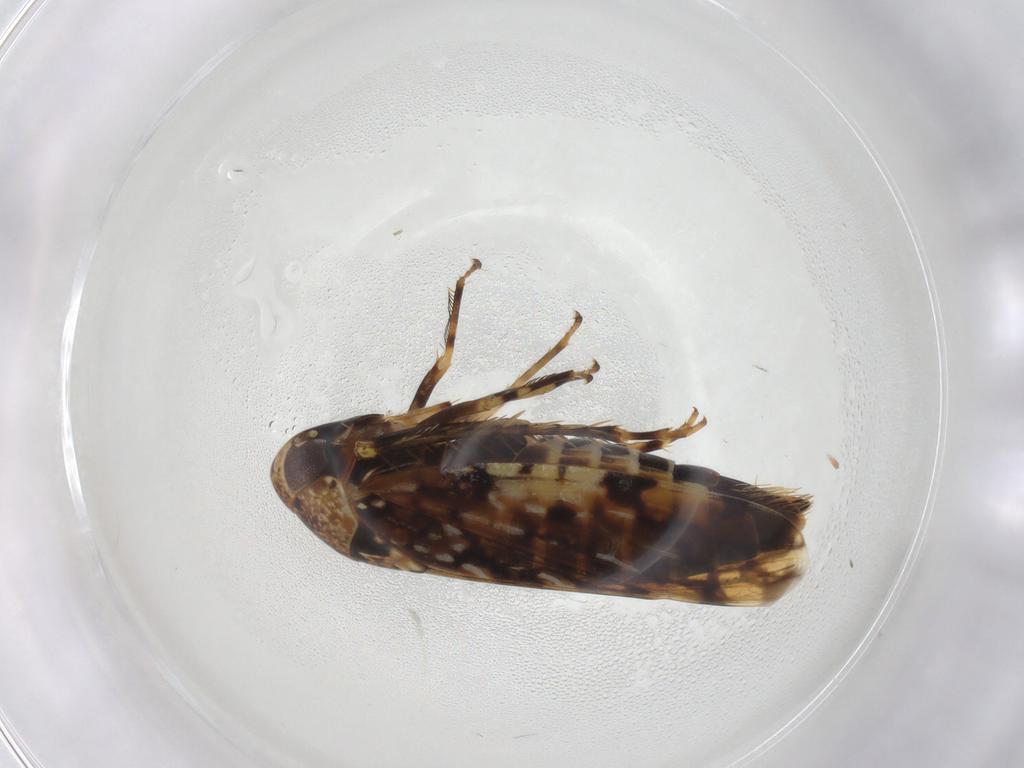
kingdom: Animalia
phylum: Arthropoda
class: Insecta
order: Hemiptera
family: Cicadellidae
